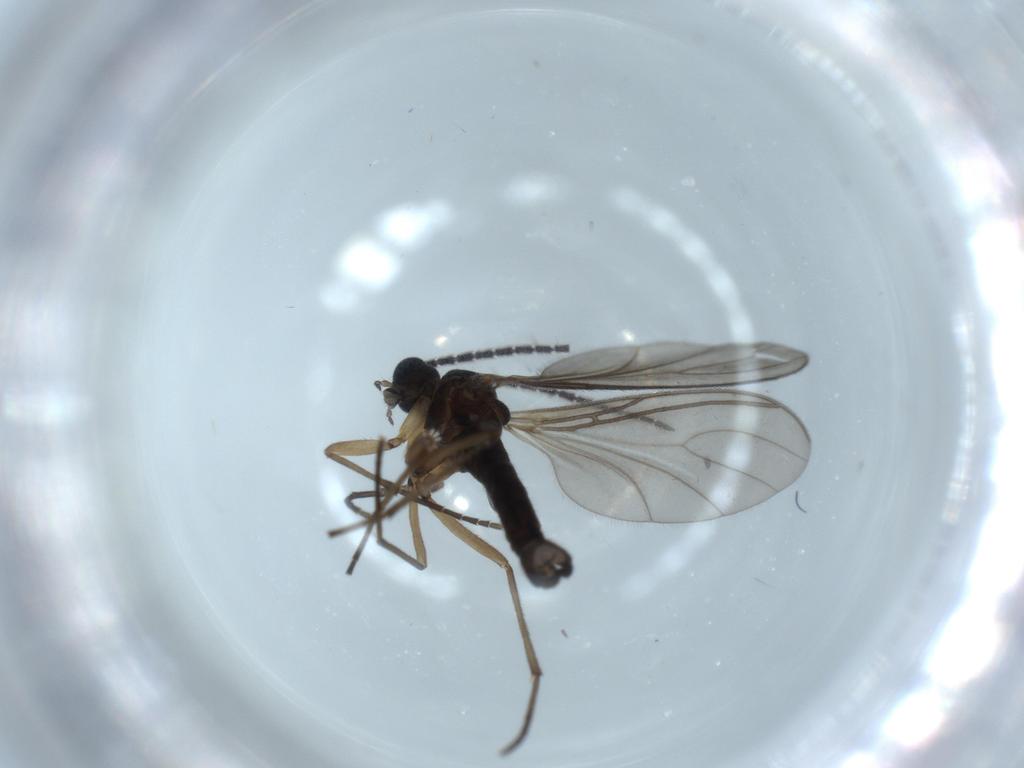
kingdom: Animalia
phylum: Arthropoda
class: Insecta
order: Diptera
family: Sciaridae
